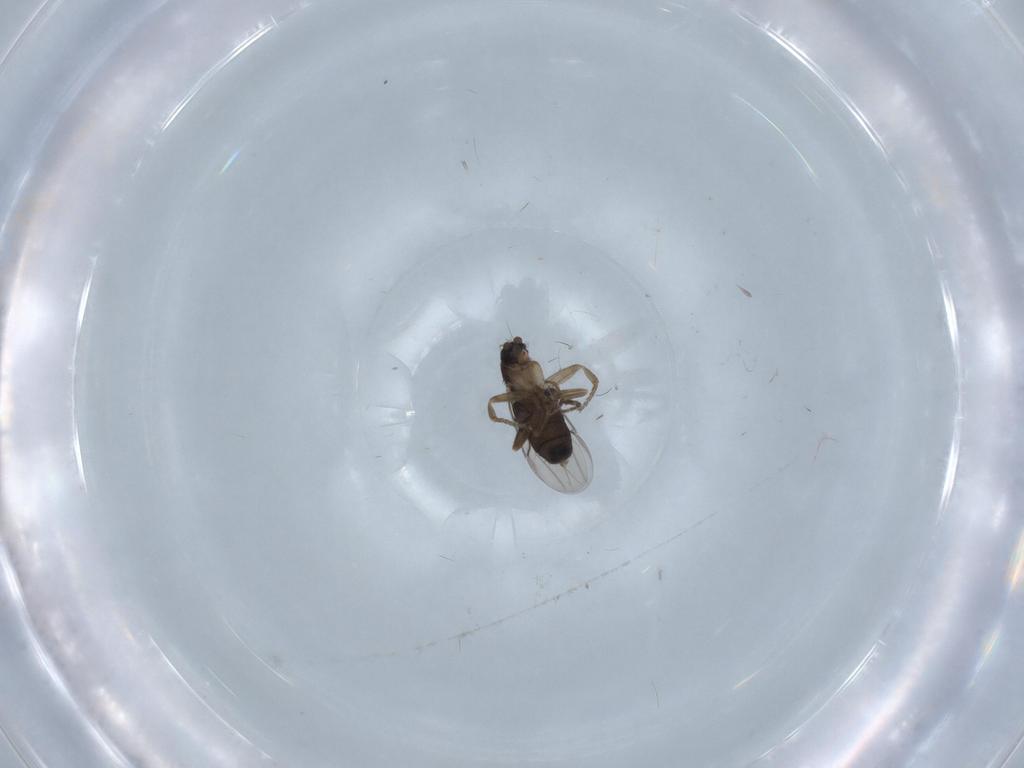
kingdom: Animalia
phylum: Arthropoda
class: Insecta
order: Diptera
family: Phoridae
